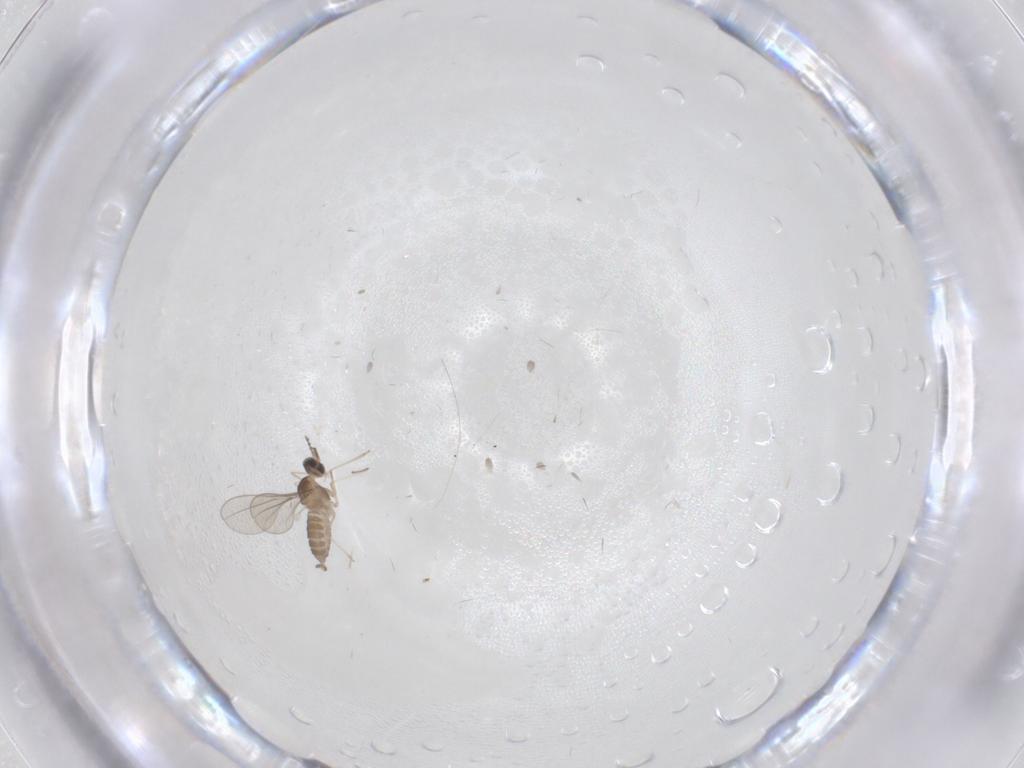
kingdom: Animalia
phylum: Arthropoda
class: Insecta
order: Diptera
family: Cecidomyiidae
